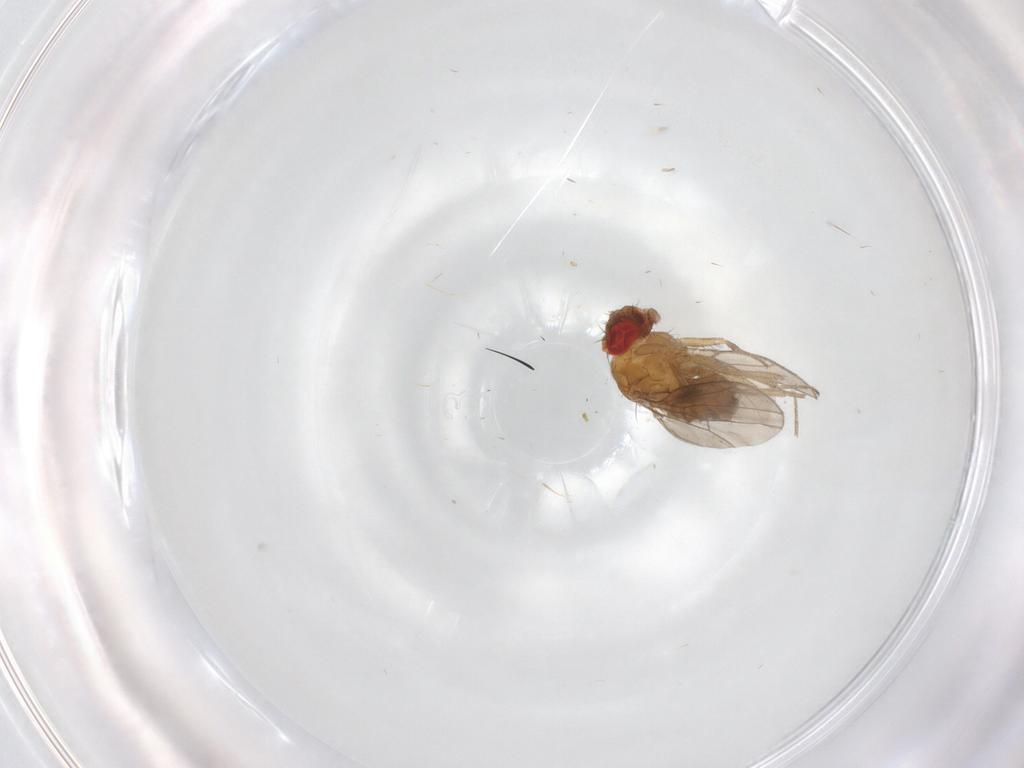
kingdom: Animalia
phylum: Arthropoda
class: Insecta
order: Diptera
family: Drosophilidae
